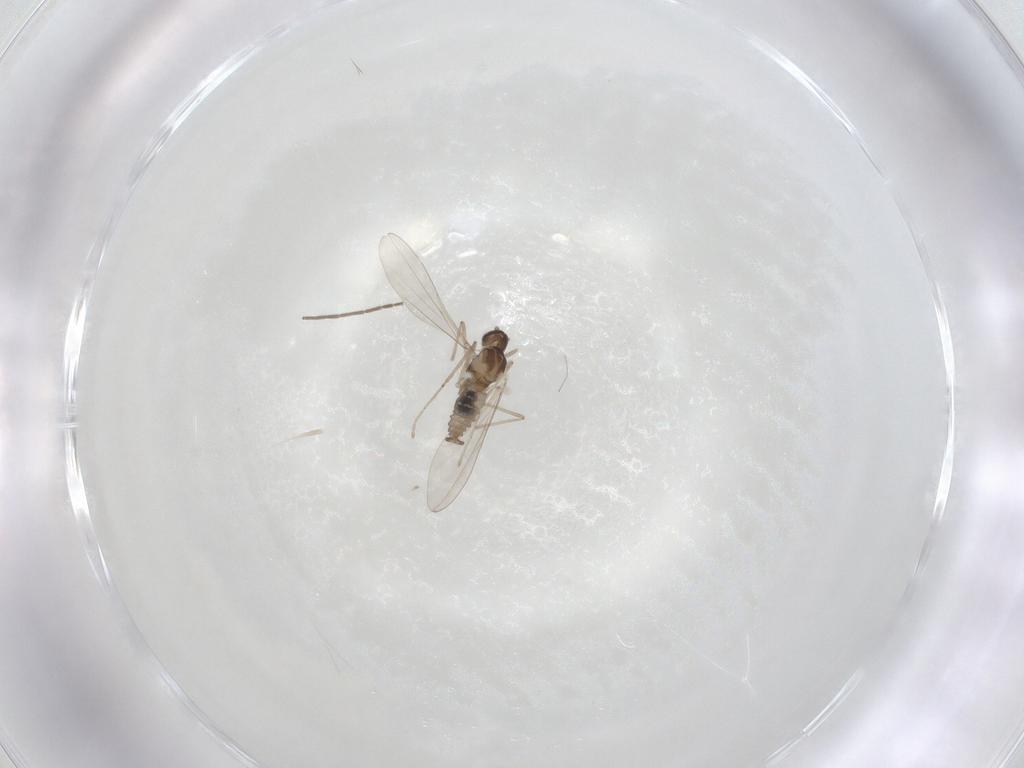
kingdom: Animalia
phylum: Arthropoda
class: Insecta
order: Diptera
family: Cecidomyiidae
